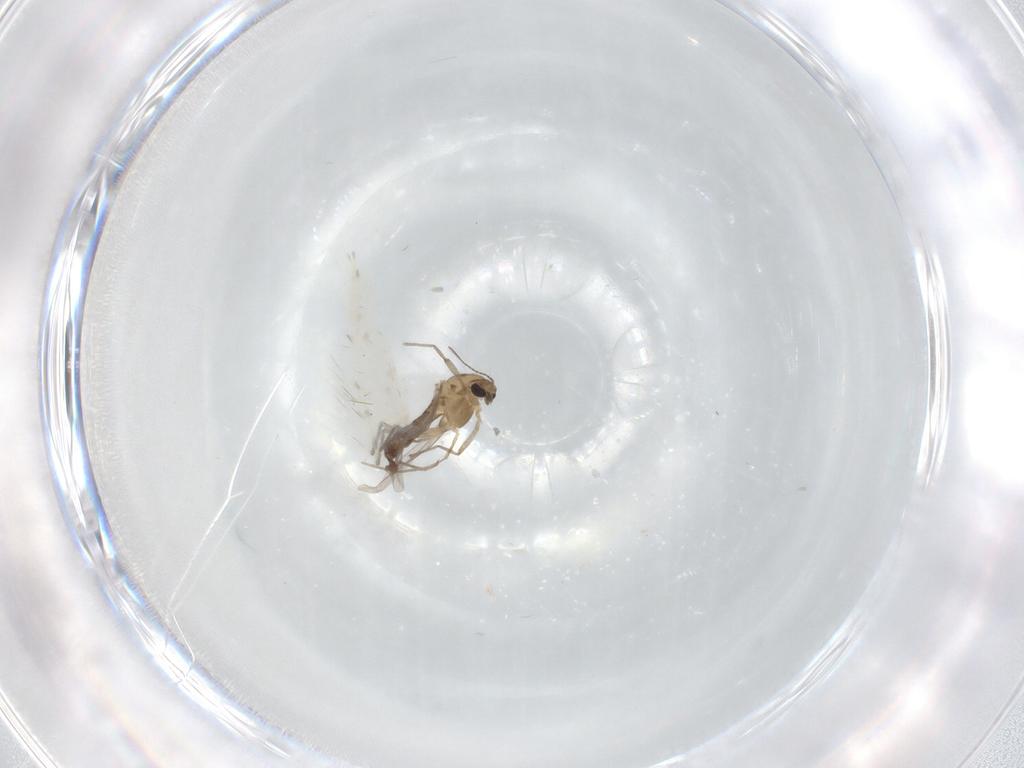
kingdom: Animalia
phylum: Arthropoda
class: Insecta
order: Diptera
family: Chironomidae
